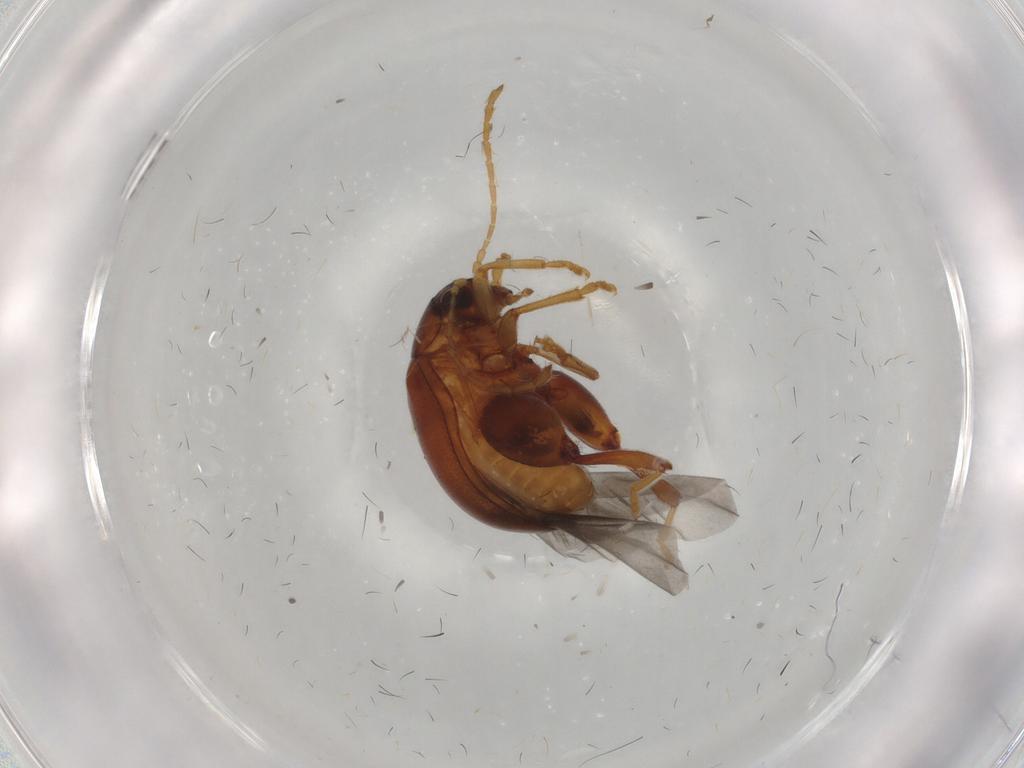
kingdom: Animalia
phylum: Arthropoda
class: Insecta
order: Coleoptera
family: Chrysomelidae
